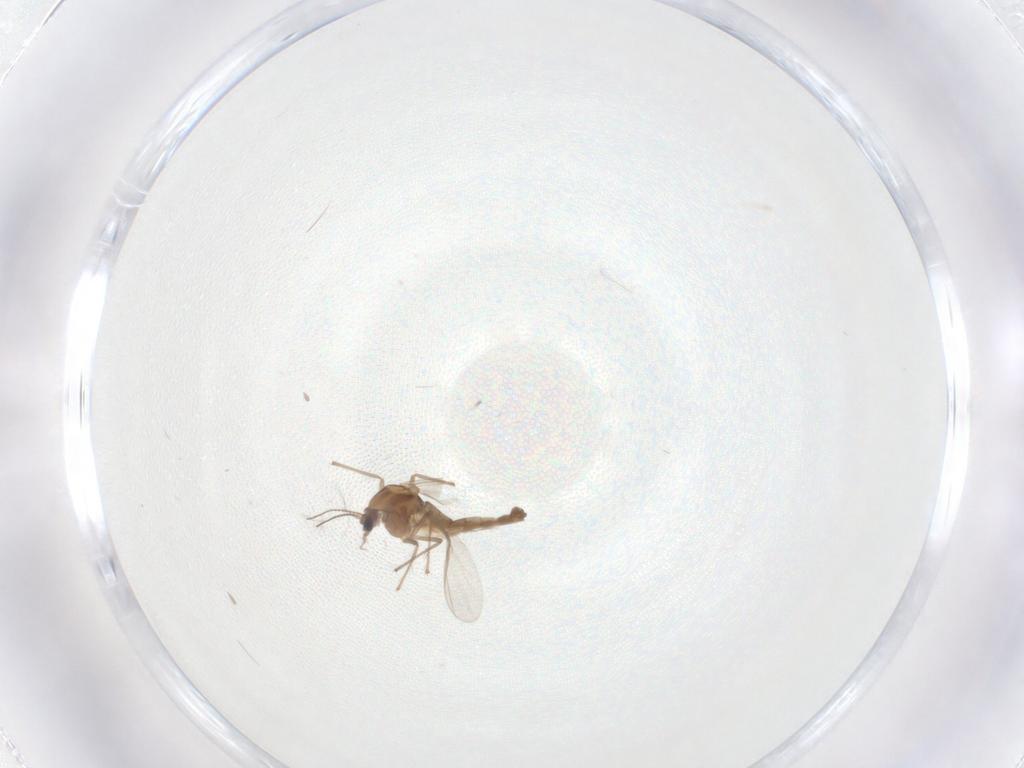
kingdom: Animalia
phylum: Arthropoda
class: Insecta
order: Diptera
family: Chironomidae
